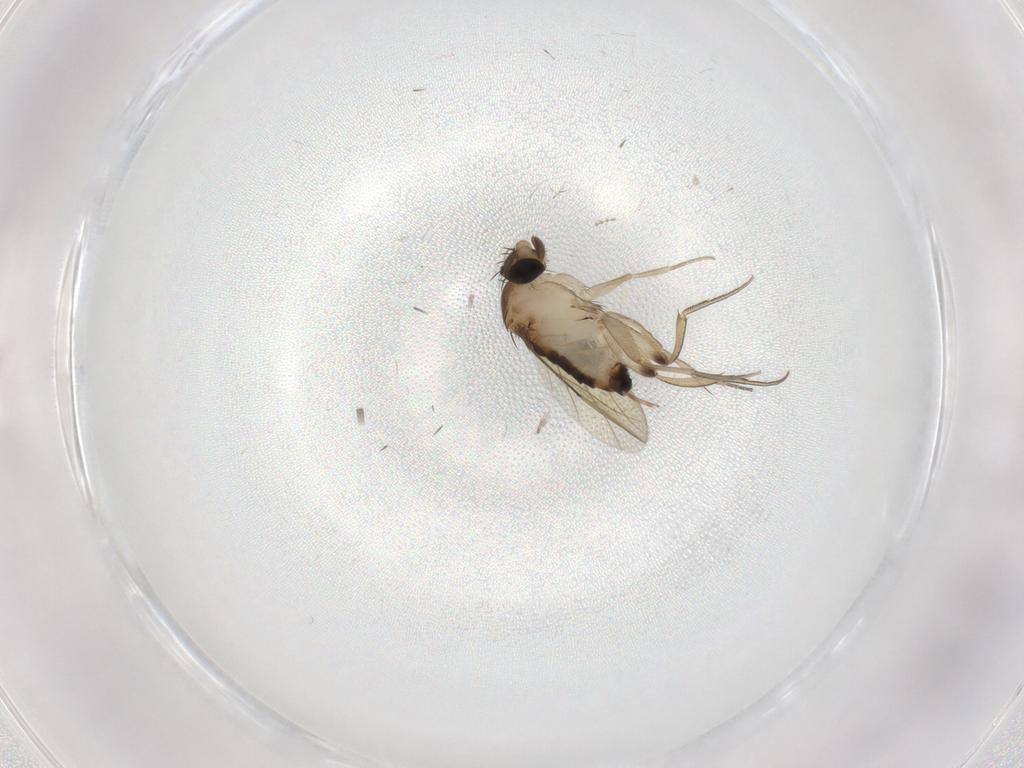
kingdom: Animalia
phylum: Arthropoda
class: Insecta
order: Diptera
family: Phoridae
